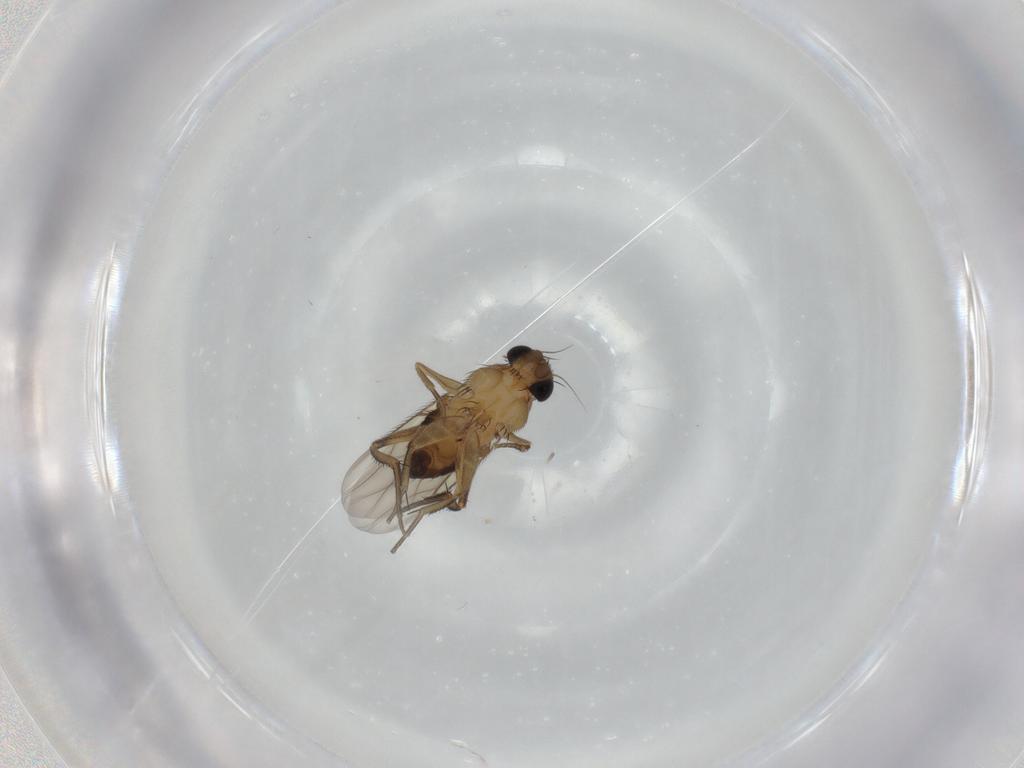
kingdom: Animalia
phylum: Arthropoda
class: Insecta
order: Diptera
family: Phoridae
